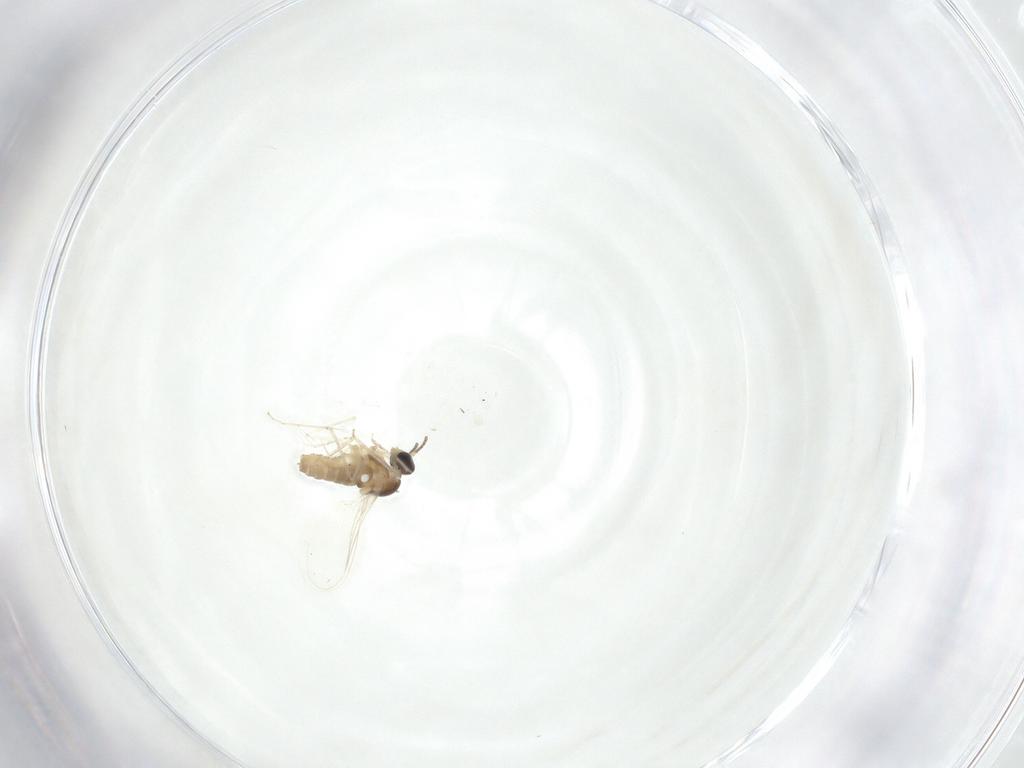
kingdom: Animalia
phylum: Arthropoda
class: Insecta
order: Diptera
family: Cecidomyiidae
